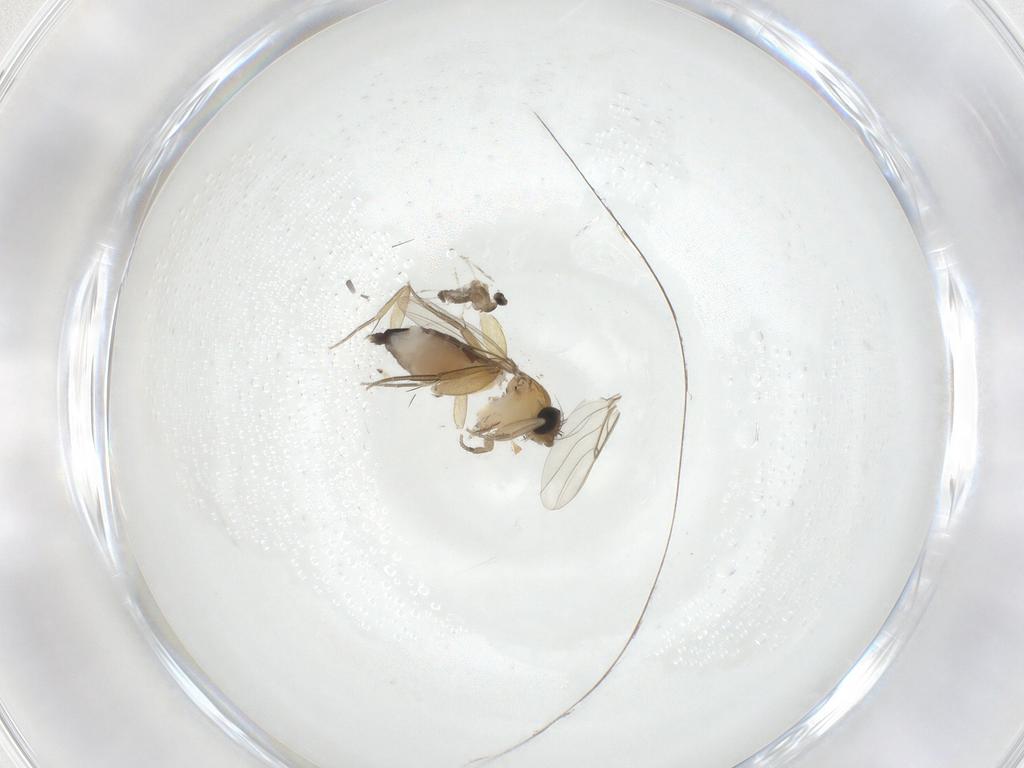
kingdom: Animalia
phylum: Arthropoda
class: Insecta
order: Diptera
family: Phoridae
